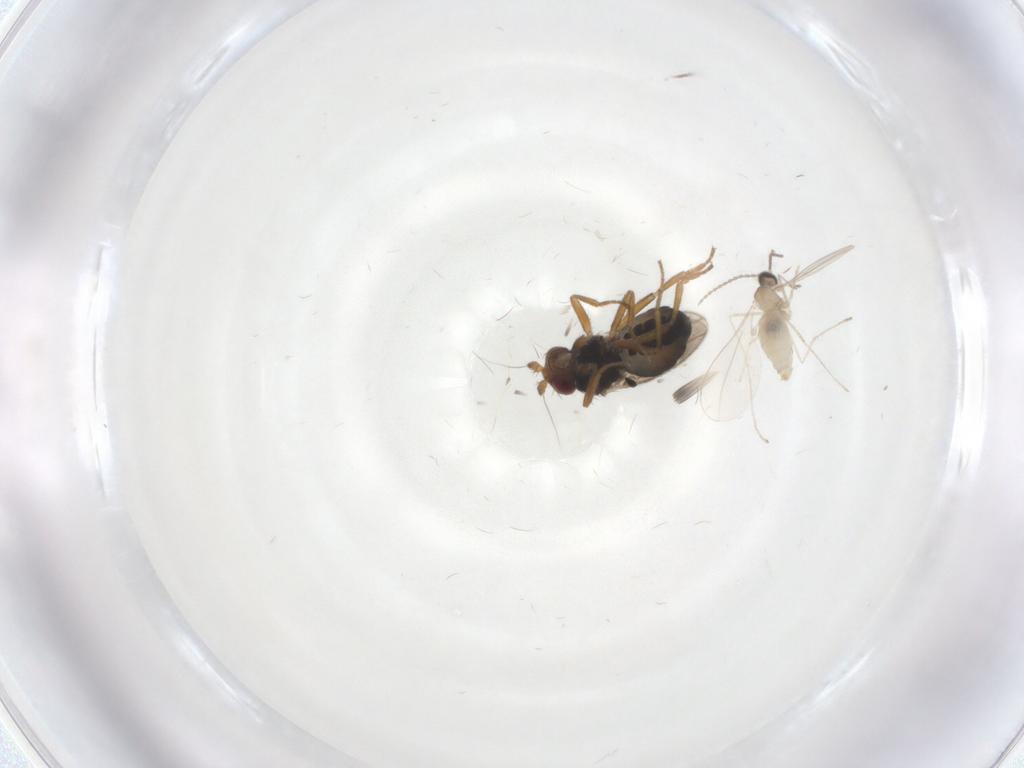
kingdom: Animalia
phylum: Arthropoda
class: Insecta
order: Diptera
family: Sphaeroceridae
